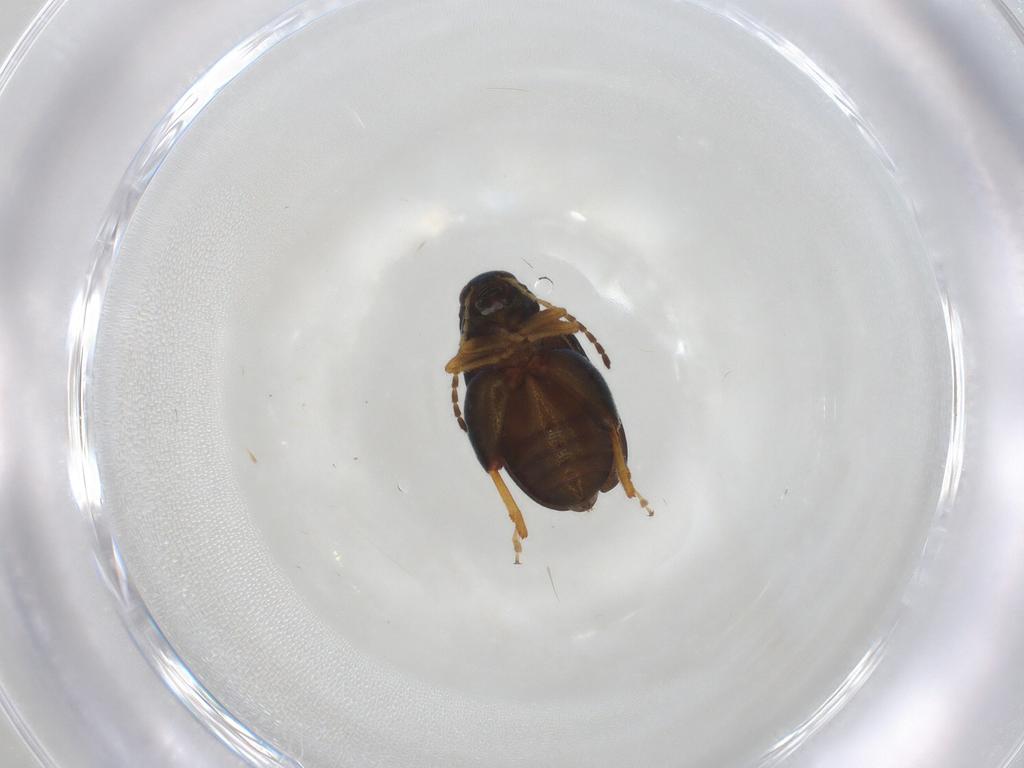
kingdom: Animalia
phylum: Arthropoda
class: Insecta
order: Coleoptera
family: Chrysomelidae
